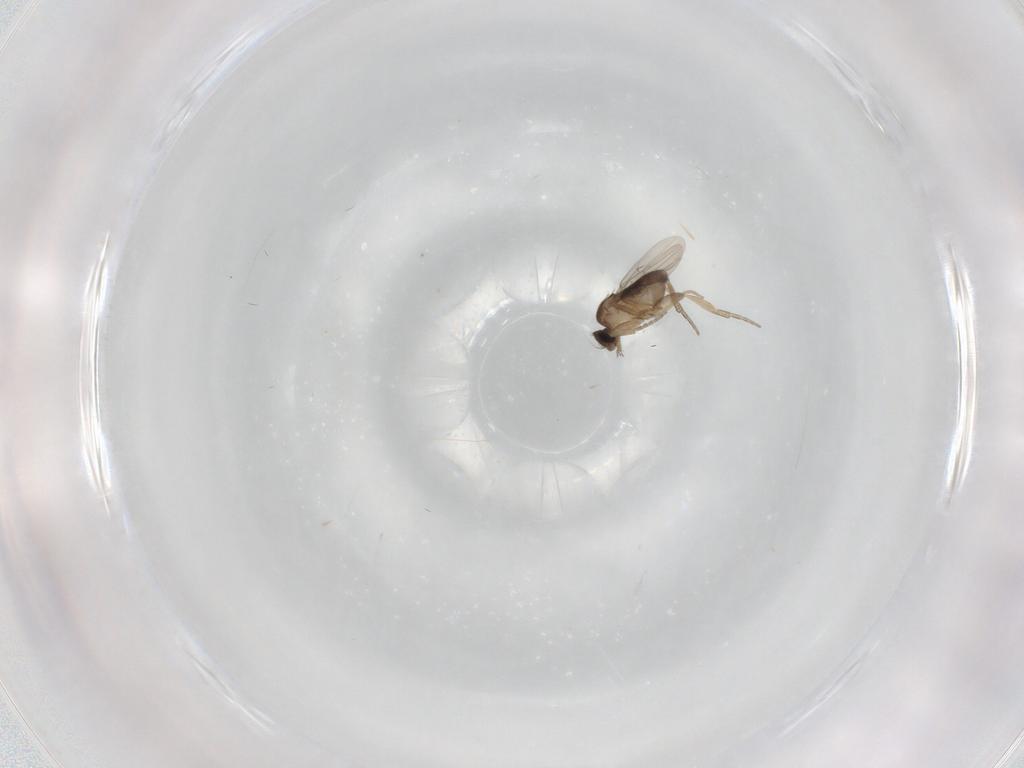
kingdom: Animalia
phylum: Arthropoda
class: Insecta
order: Diptera
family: Phoridae
